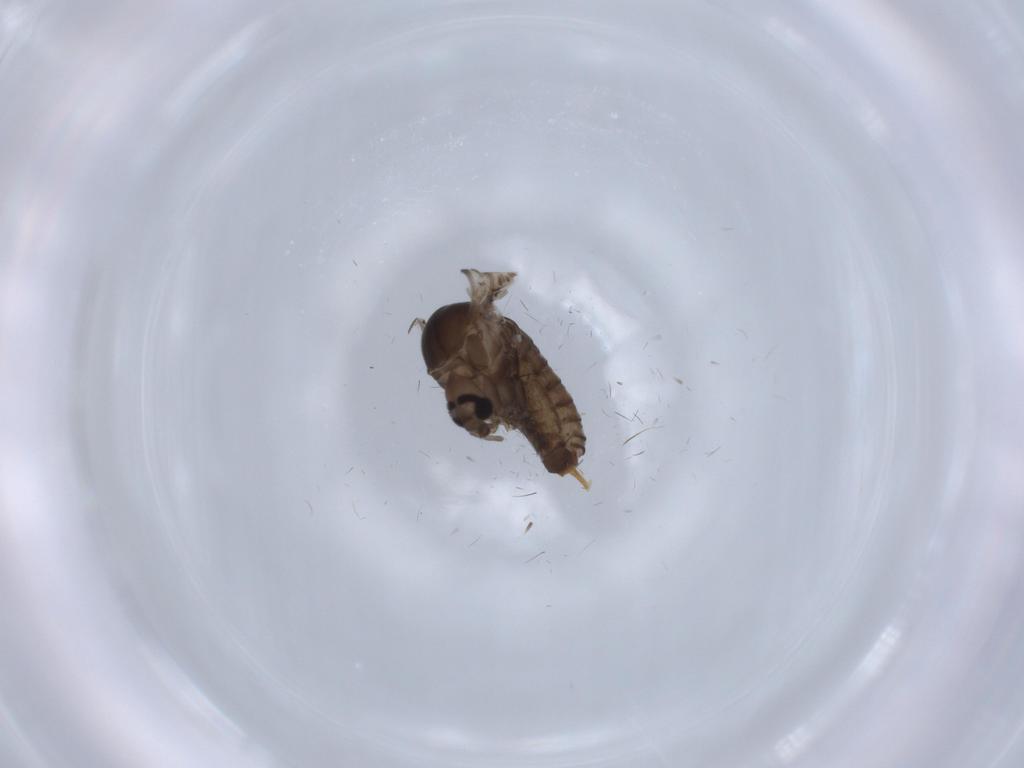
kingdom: Animalia
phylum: Arthropoda
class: Insecta
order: Diptera
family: Psychodidae
